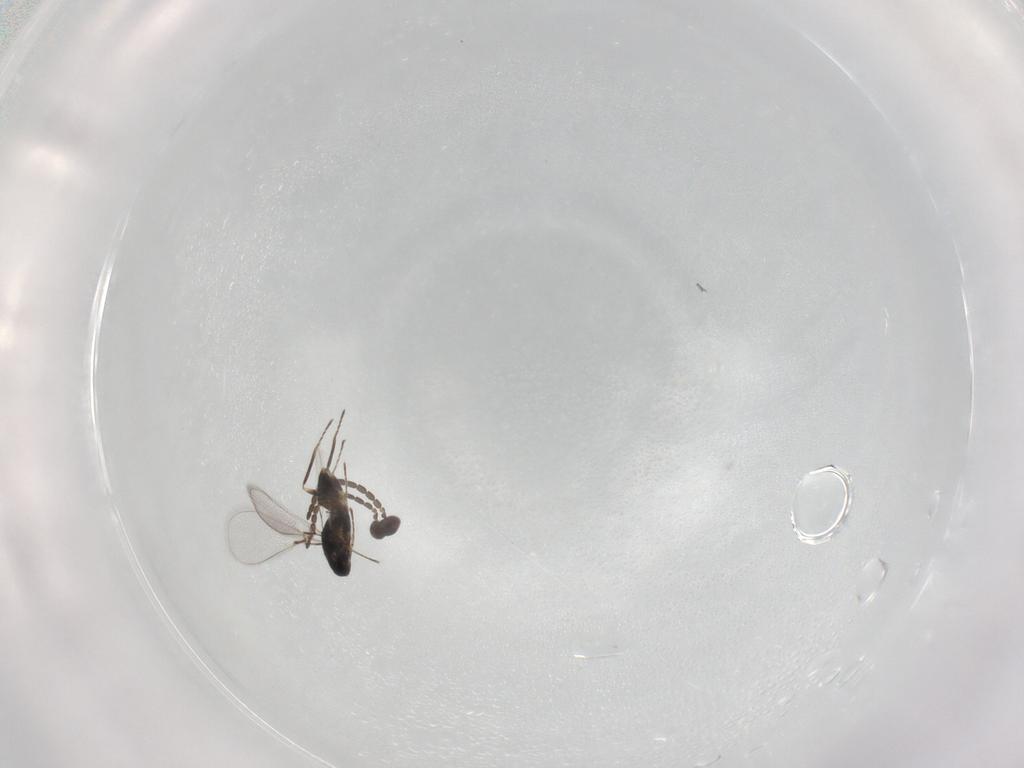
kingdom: Animalia
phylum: Arthropoda
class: Insecta
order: Hymenoptera
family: Mymaridae
